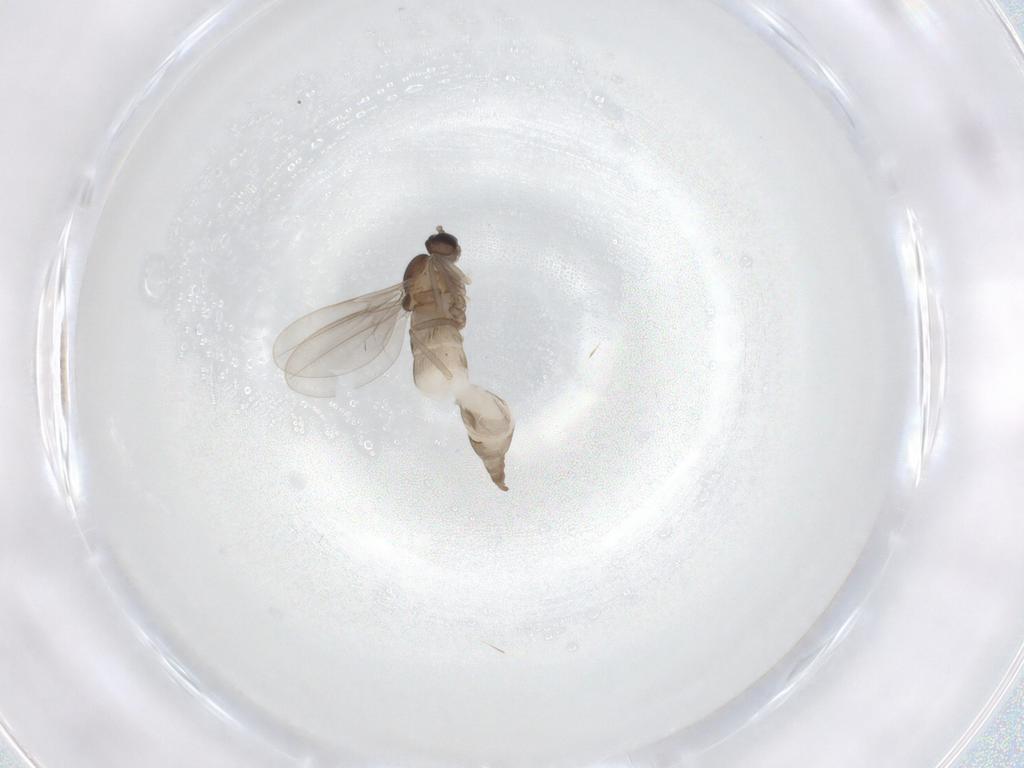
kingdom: Animalia
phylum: Arthropoda
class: Insecta
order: Diptera
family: Cecidomyiidae
